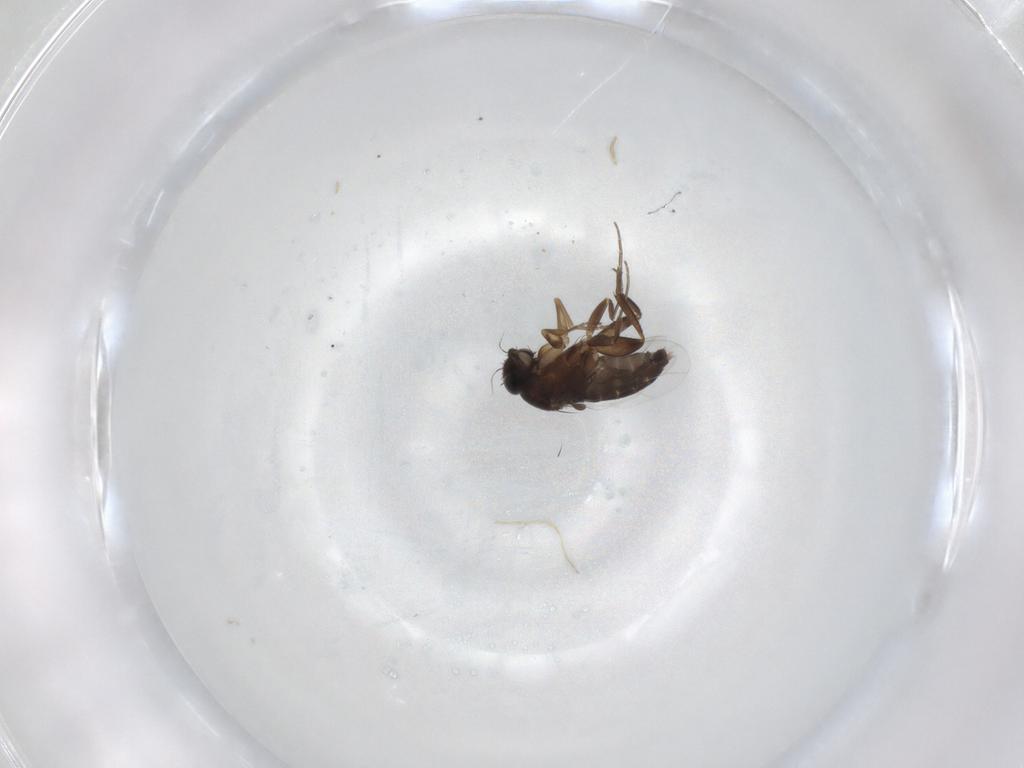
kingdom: Animalia
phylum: Arthropoda
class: Insecta
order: Diptera
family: Phoridae
